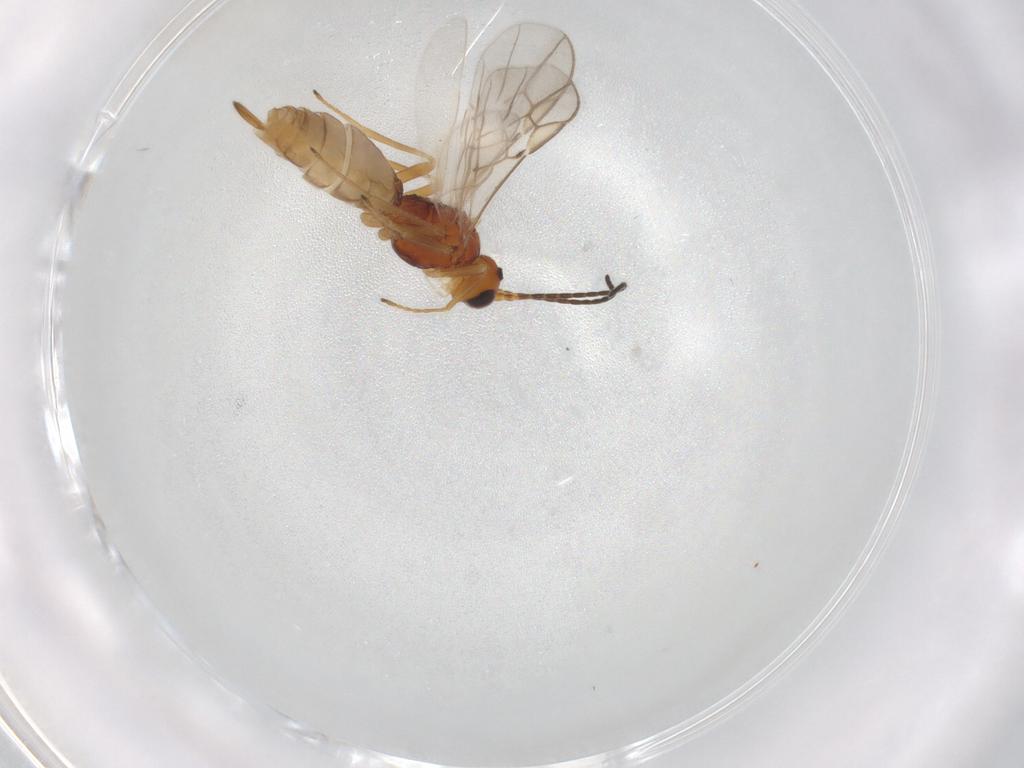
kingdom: Animalia
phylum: Arthropoda
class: Insecta
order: Hymenoptera
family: Braconidae
